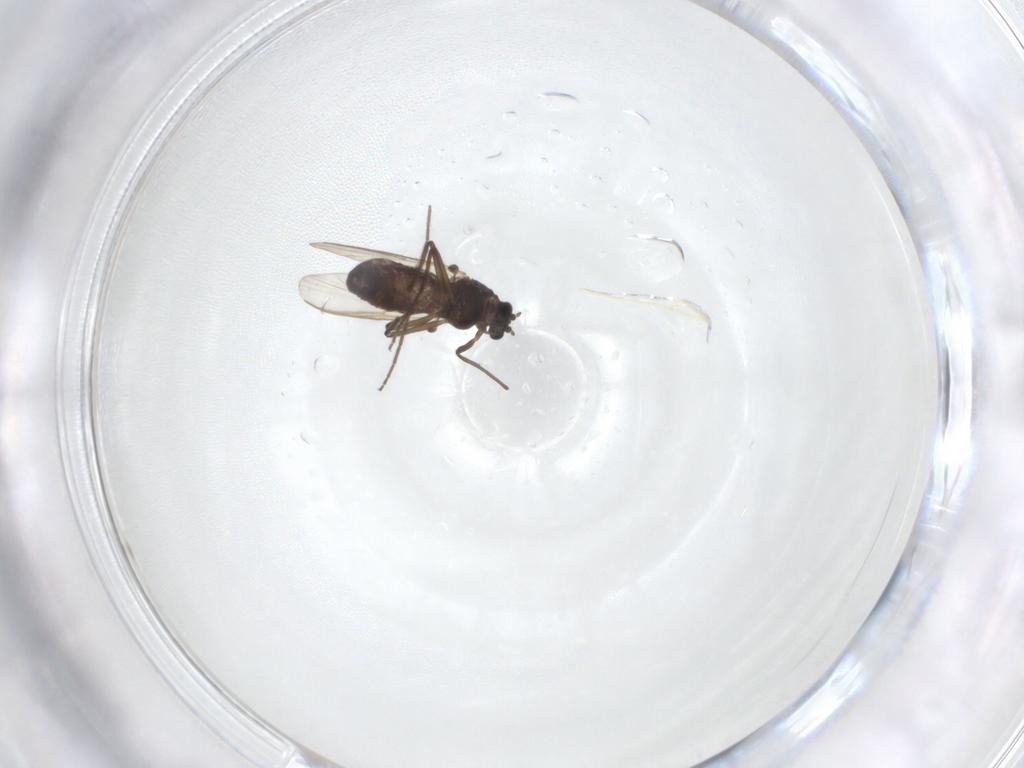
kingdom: Animalia
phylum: Arthropoda
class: Insecta
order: Diptera
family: Chironomidae
